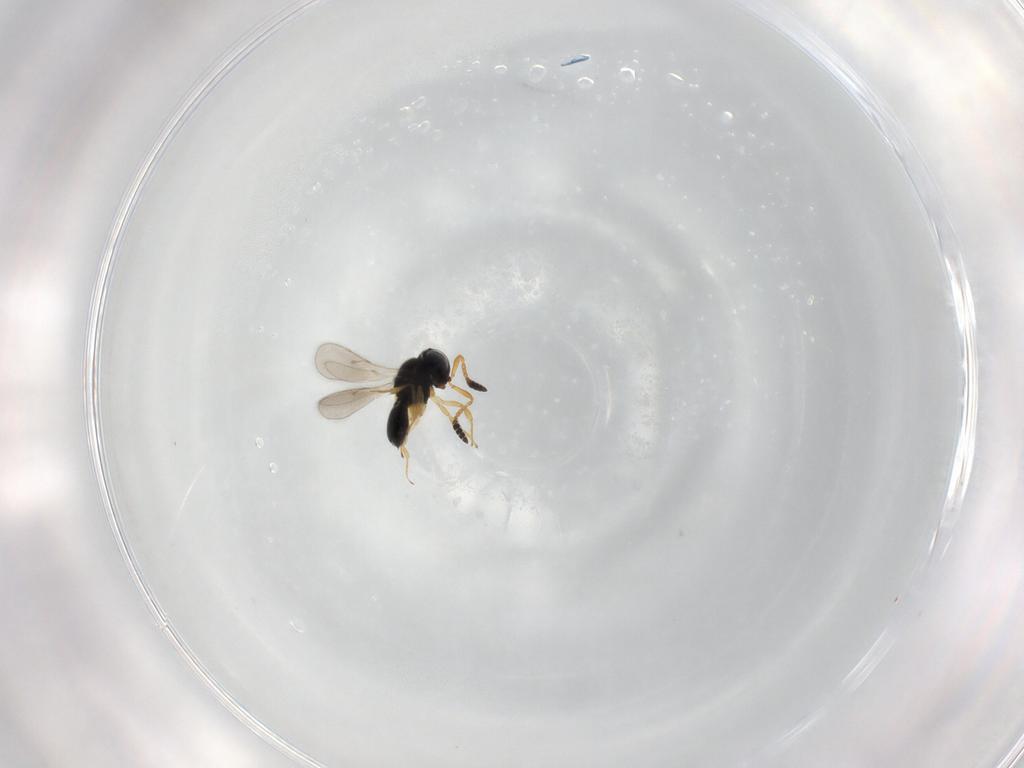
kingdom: Animalia
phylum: Arthropoda
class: Insecta
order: Hymenoptera
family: Scelionidae
